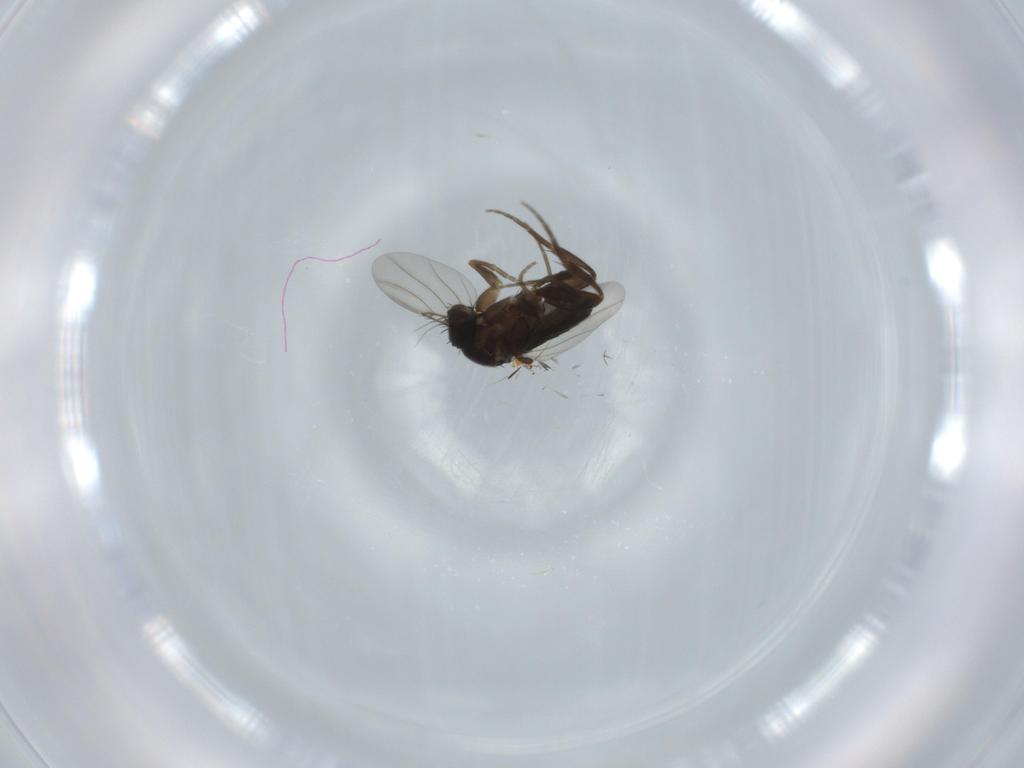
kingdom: Animalia
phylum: Arthropoda
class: Insecta
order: Diptera
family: Phoridae
